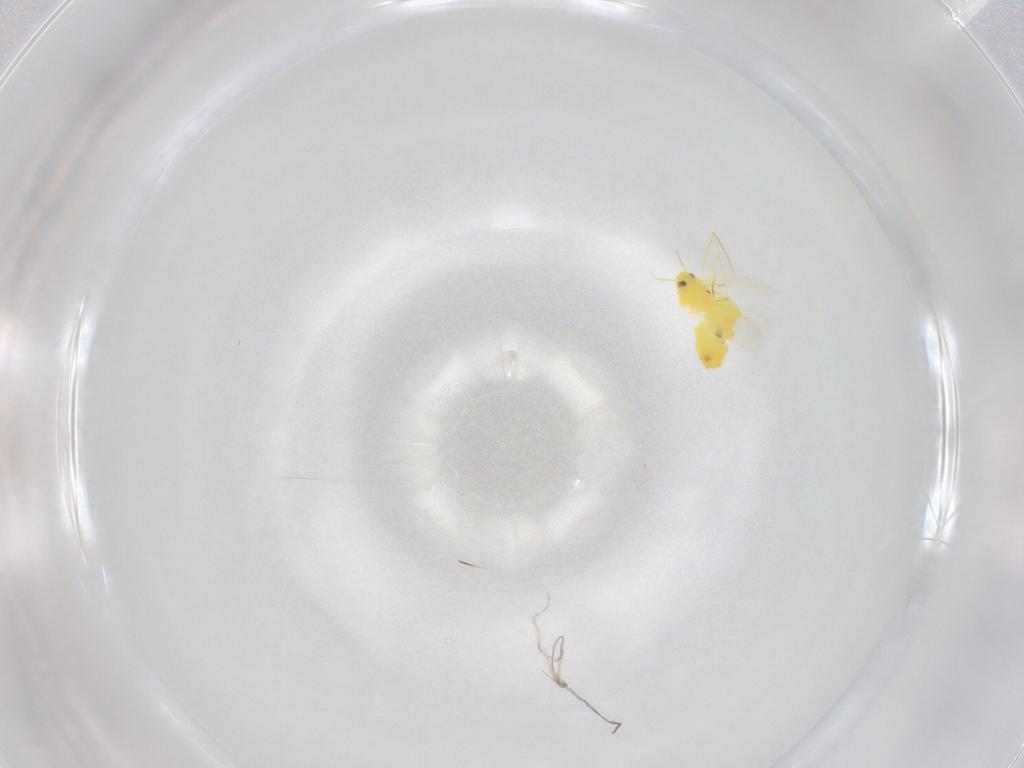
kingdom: Animalia
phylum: Arthropoda
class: Insecta
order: Hemiptera
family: Aleyrodidae
